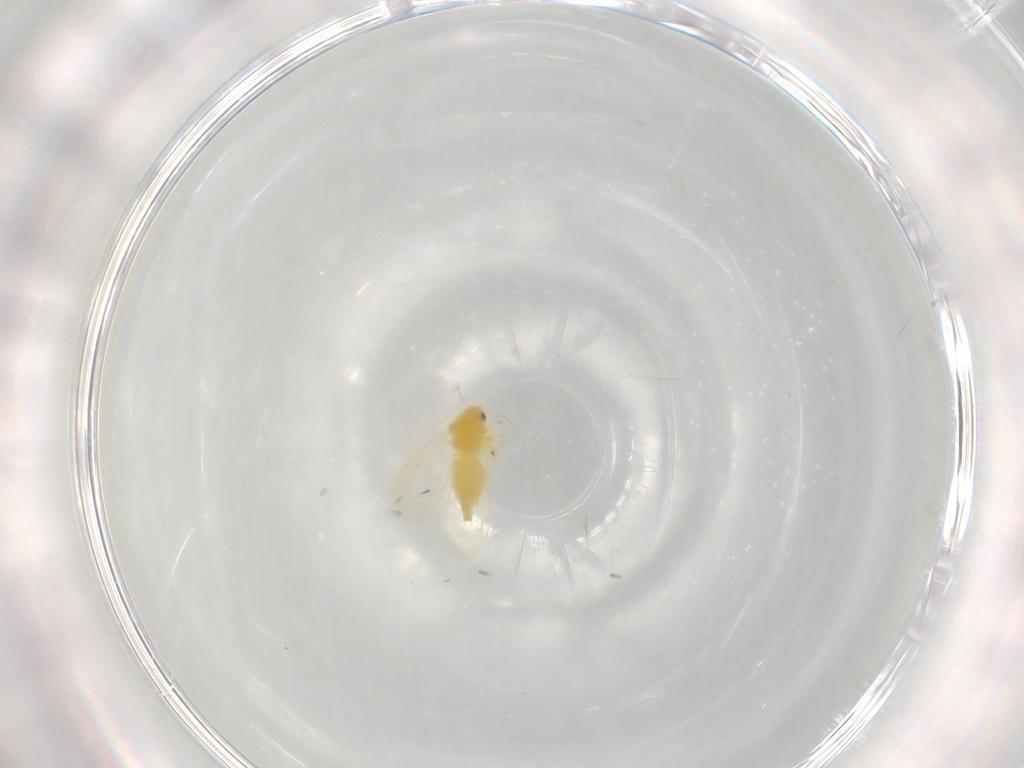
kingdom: Animalia
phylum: Arthropoda
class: Insecta
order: Hemiptera
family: Aleyrodidae
